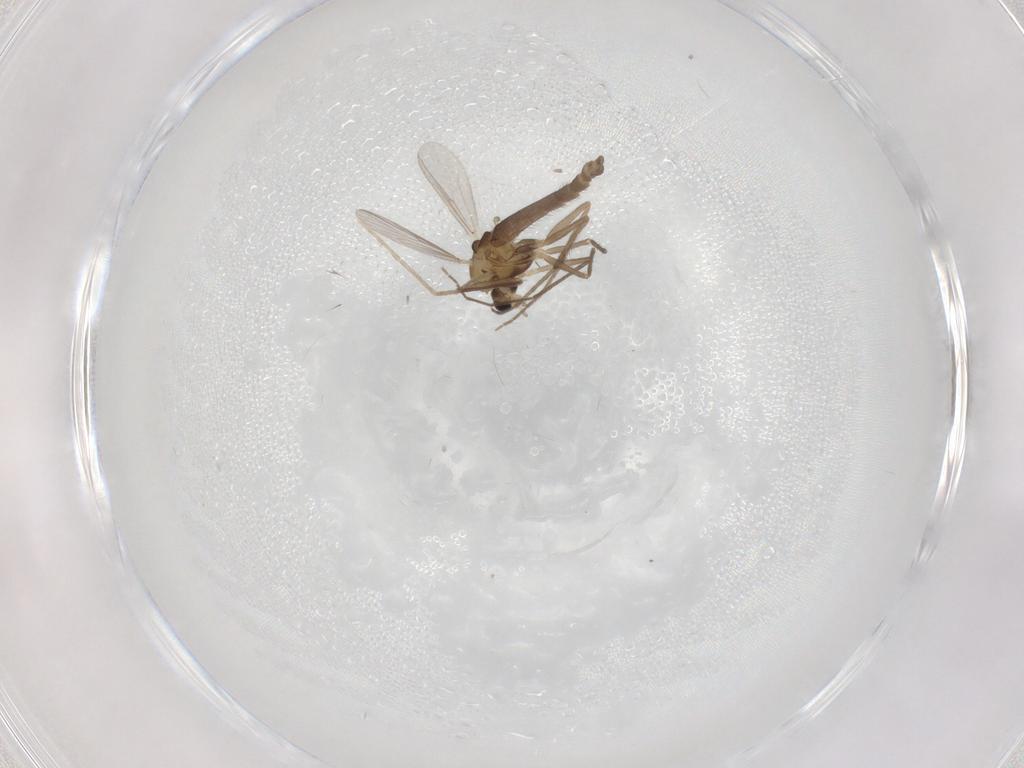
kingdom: Animalia
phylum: Arthropoda
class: Insecta
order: Diptera
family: Chironomidae
